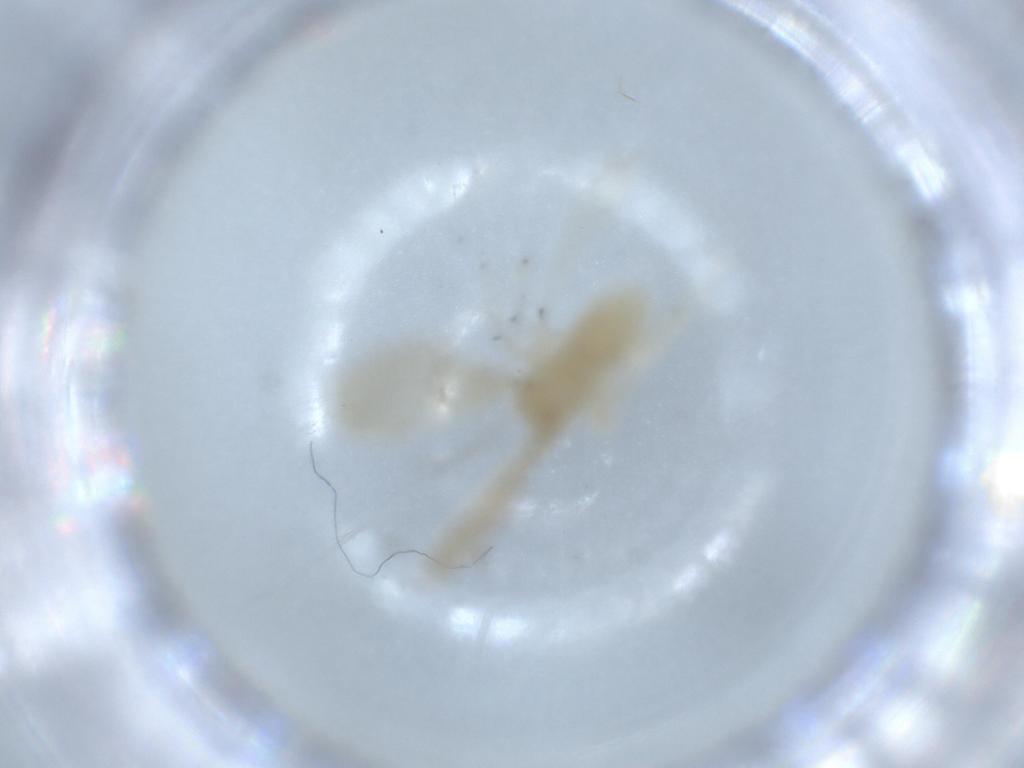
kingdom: Animalia
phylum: Arthropoda
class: Insecta
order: Psocodea
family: Caeciliusidae
